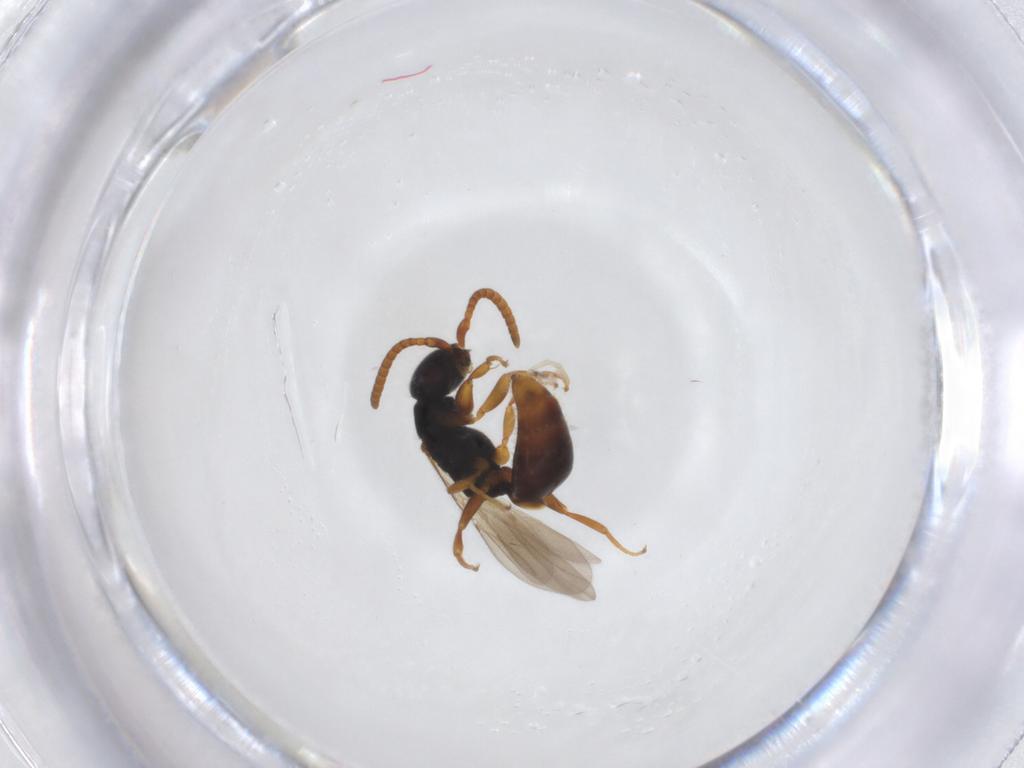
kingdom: Animalia
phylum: Arthropoda
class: Insecta
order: Hymenoptera
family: Bethylidae
